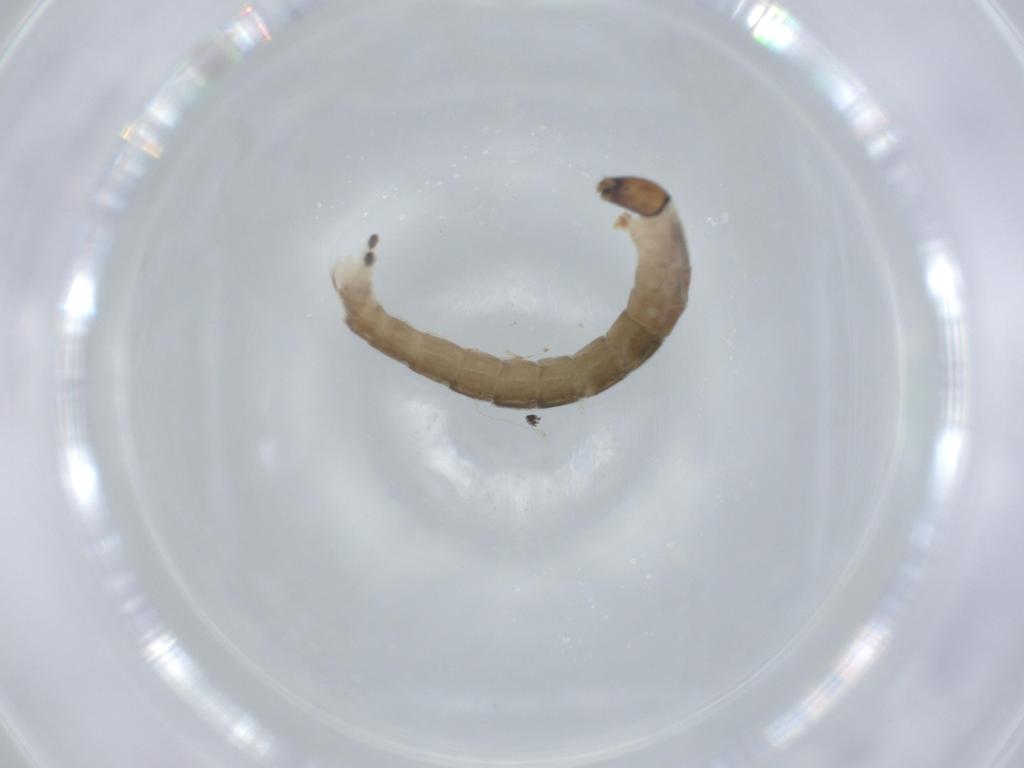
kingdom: Animalia
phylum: Arthropoda
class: Insecta
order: Diptera
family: Chironomidae
